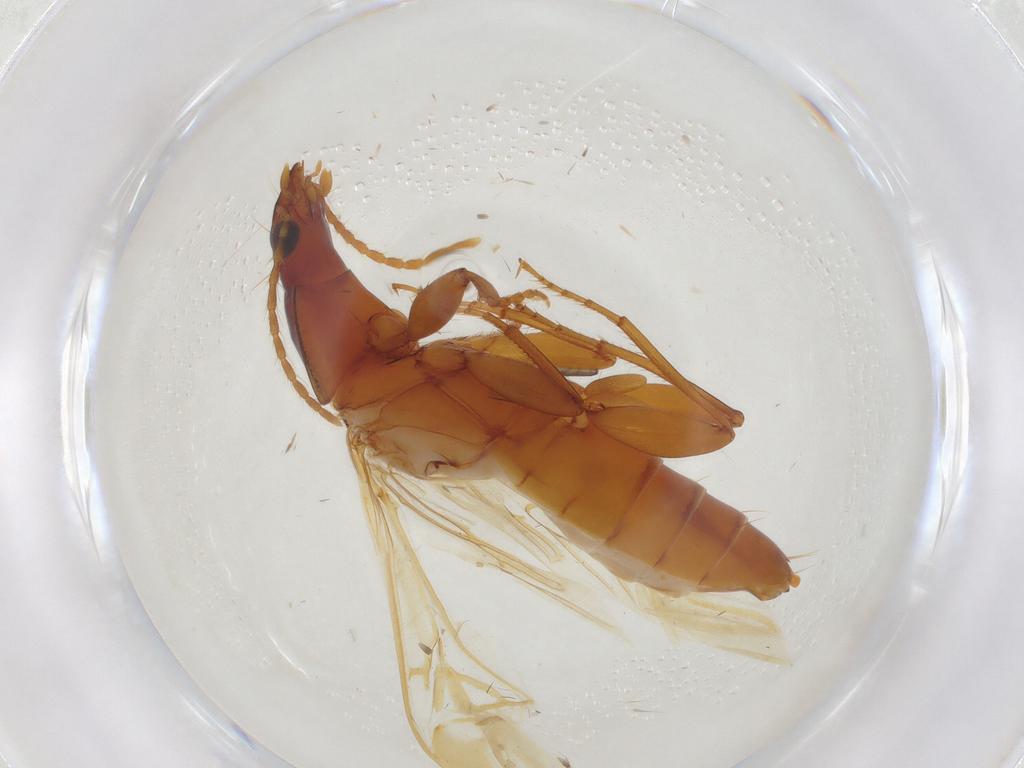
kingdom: Animalia
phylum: Arthropoda
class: Insecta
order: Coleoptera
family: Carabidae
